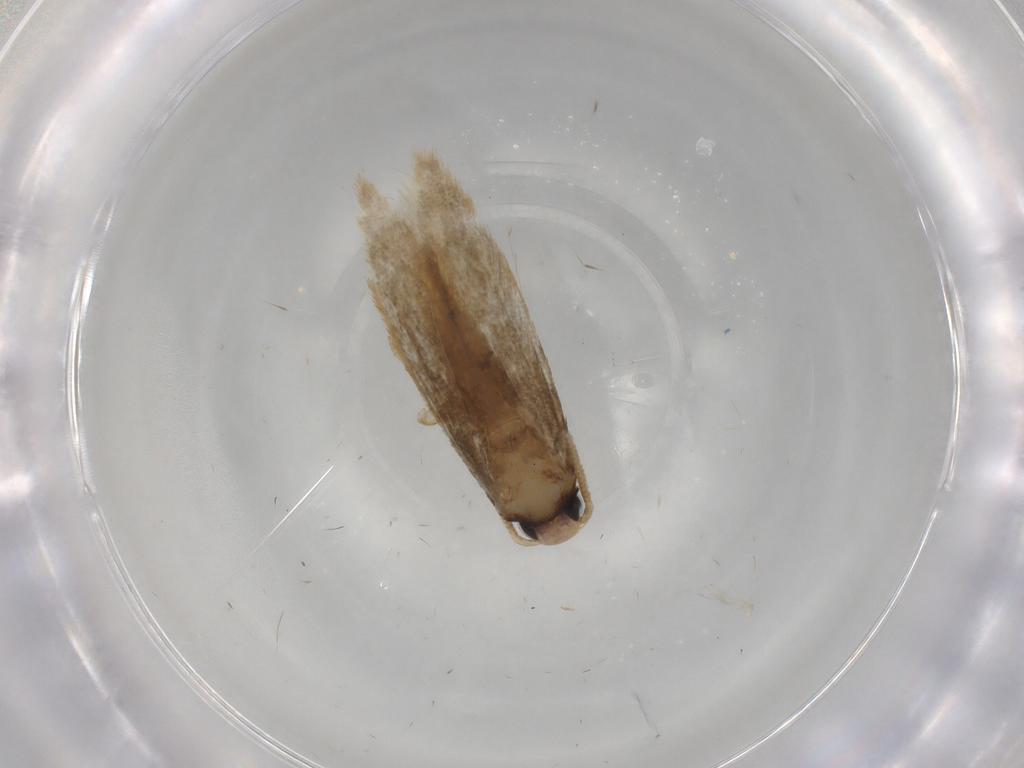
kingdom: Animalia
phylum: Arthropoda
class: Insecta
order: Lepidoptera
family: Cosmopterigidae
